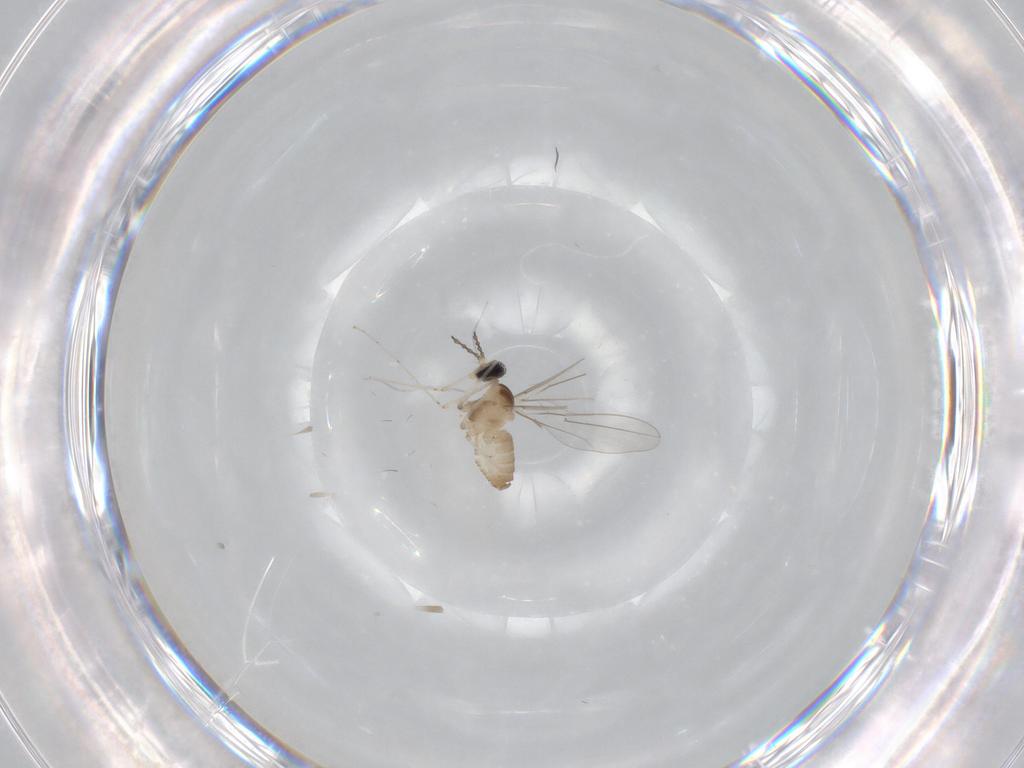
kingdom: Animalia
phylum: Arthropoda
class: Insecta
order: Diptera
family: Cecidomyiidae
